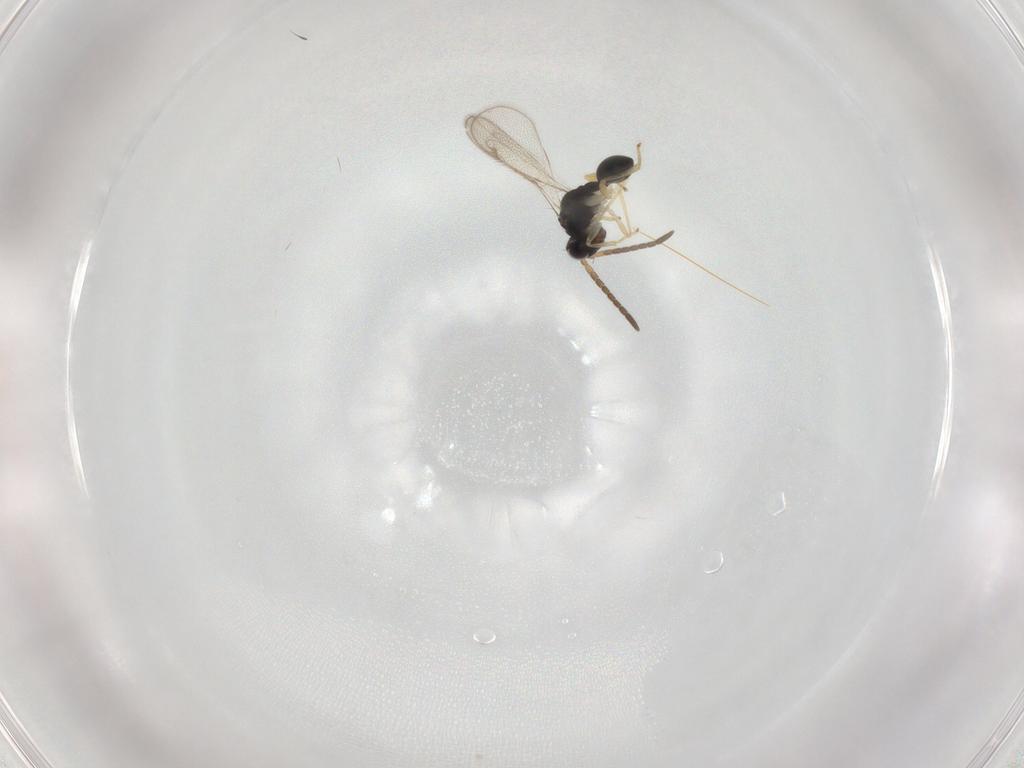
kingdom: Animalia
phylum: Arthropoda
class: Insecta
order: Hymenoptera
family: Diparidae
